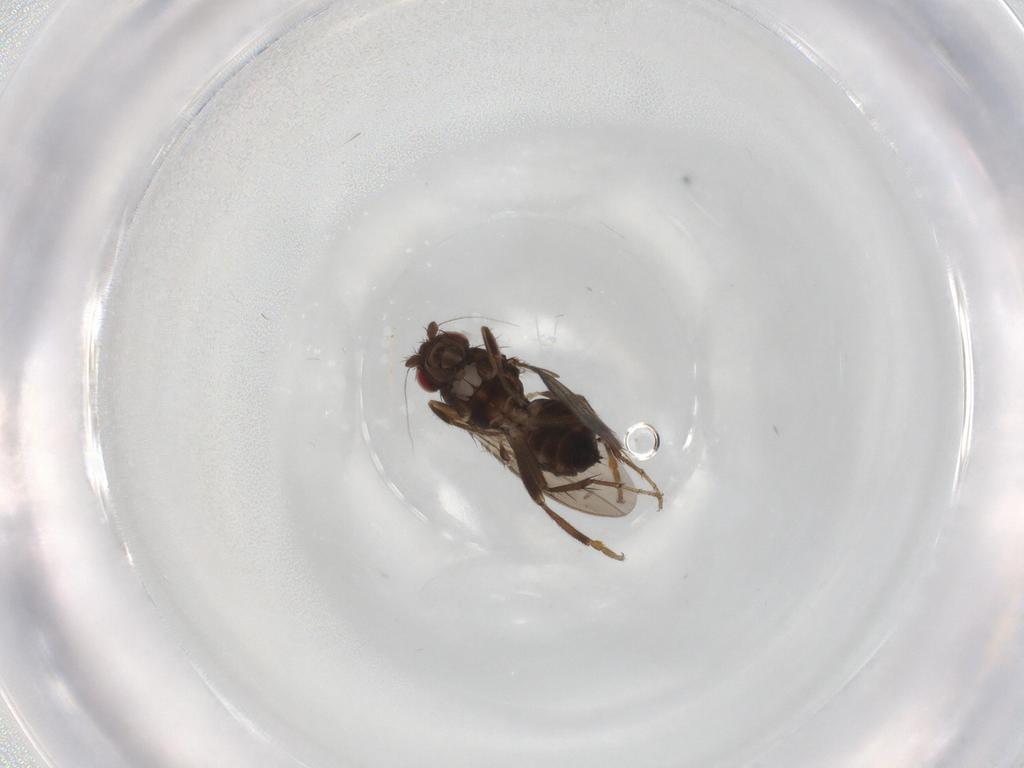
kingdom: Animalia
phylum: Arthropoda
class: Insecta
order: Diptera
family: Sphaeroceridae
